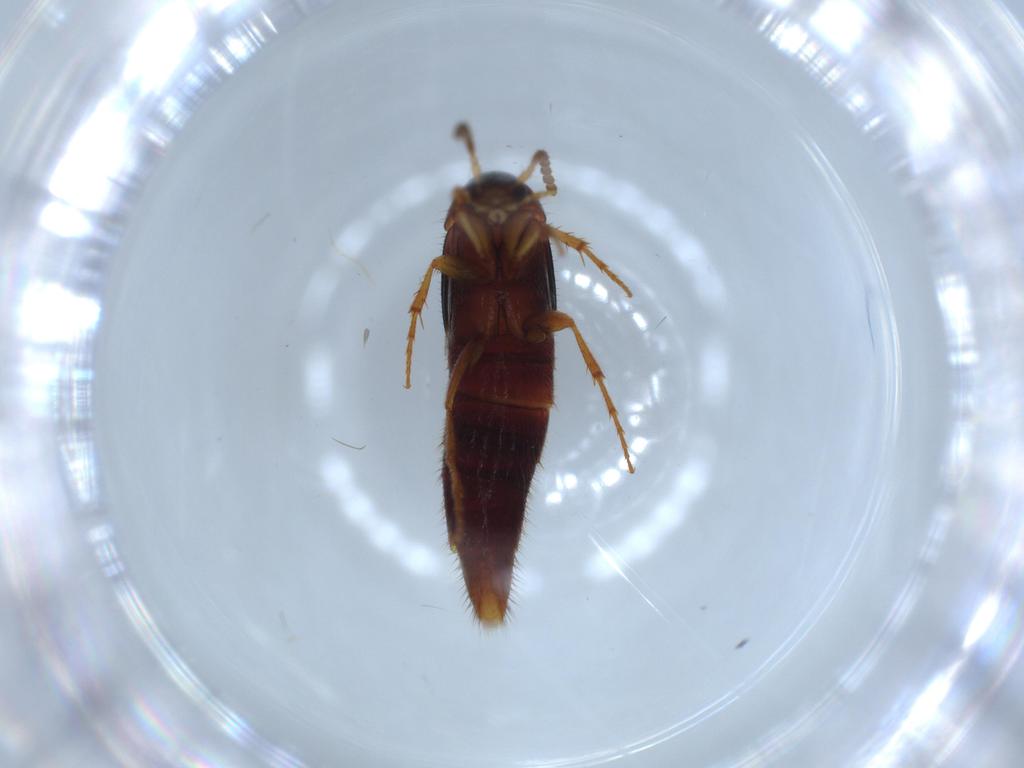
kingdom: Animalia
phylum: Arthropoda
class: Insecta
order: Coleoptera
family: Staphylinidae
